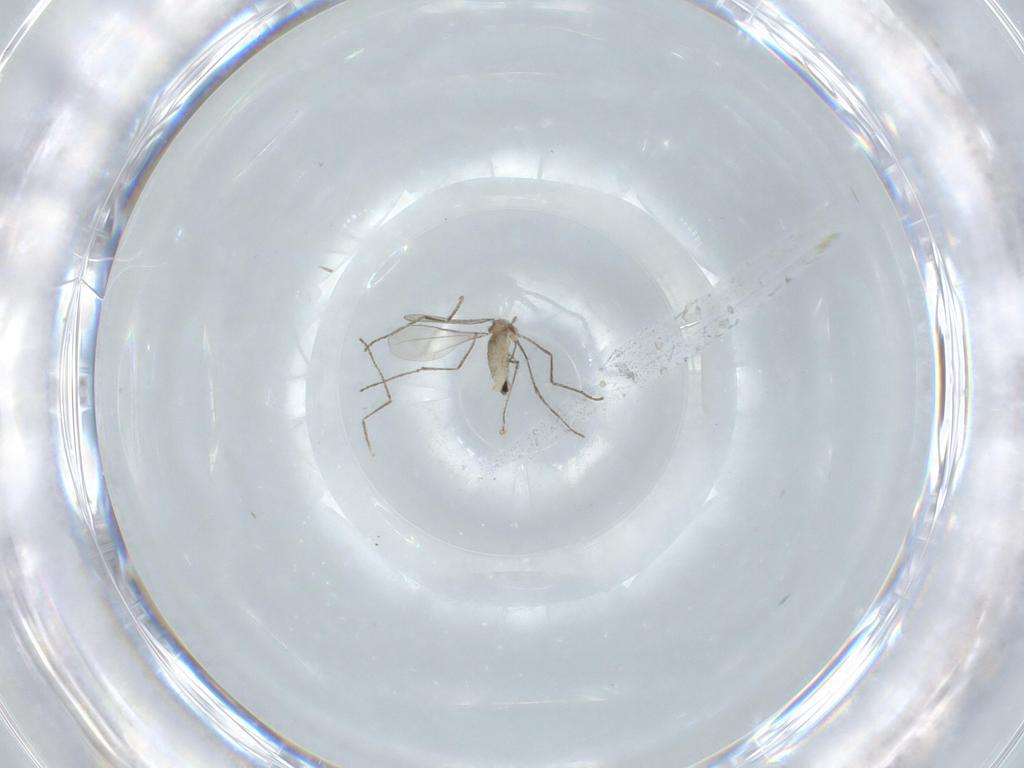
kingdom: Animalia
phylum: Arthropoda
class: Insecta
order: Diptera
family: Cecidomyiidae
